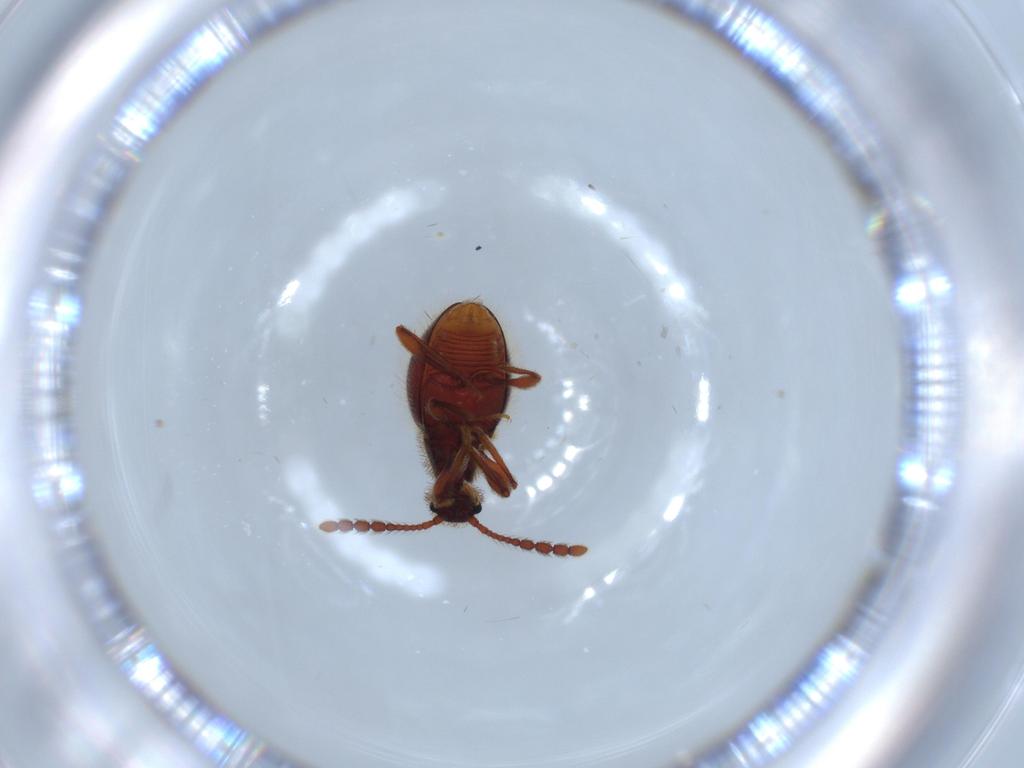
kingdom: Animalia
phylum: Arthropoda
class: Insecta
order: Coleoptera
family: Staphylinidae
